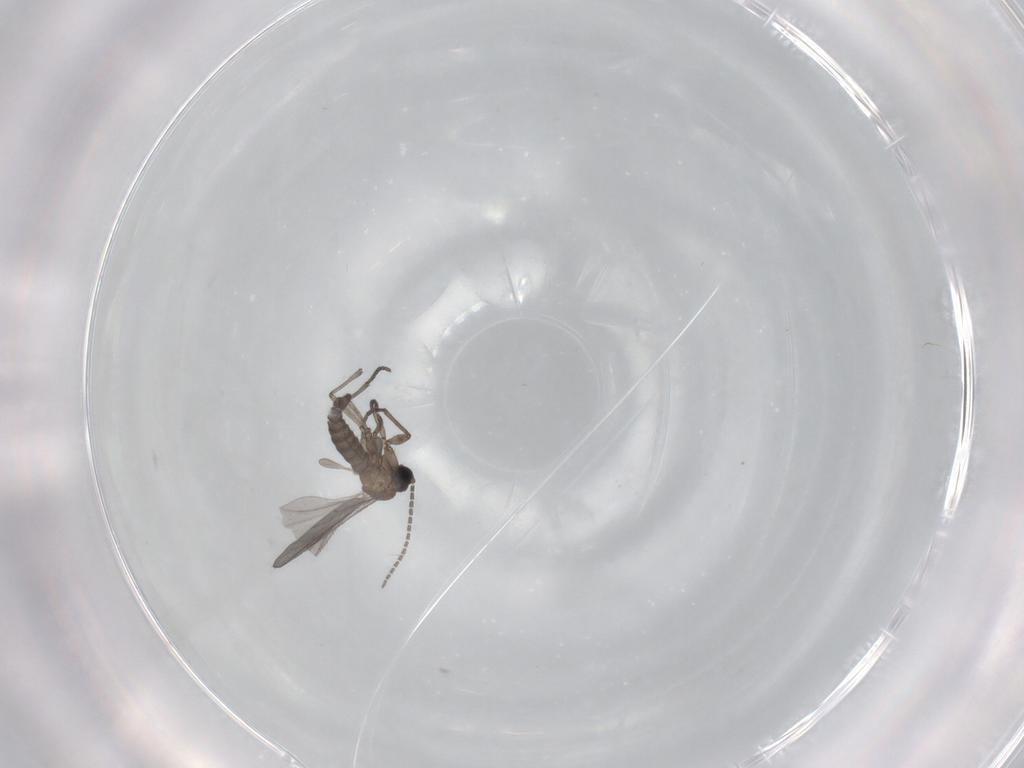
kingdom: Animalia
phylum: Arthropoda
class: Insecta
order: Diptera
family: Sciaridae
